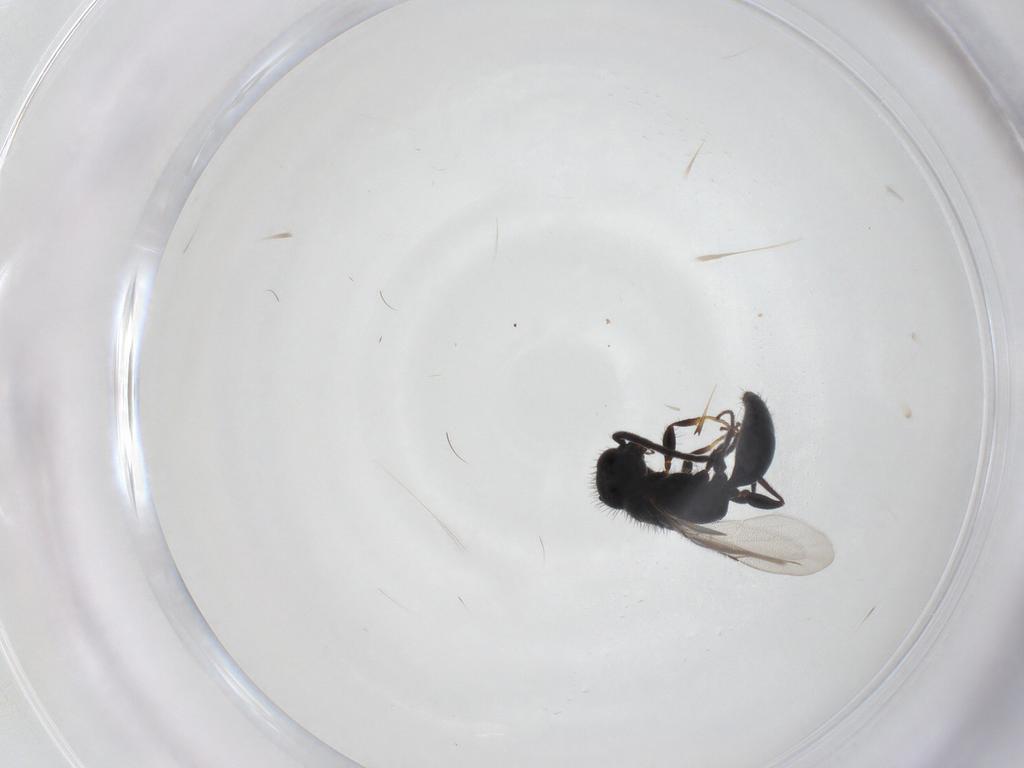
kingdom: Animalia
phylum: Arthropoda
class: Insecta
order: Hymenoptera
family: Bethylidae
